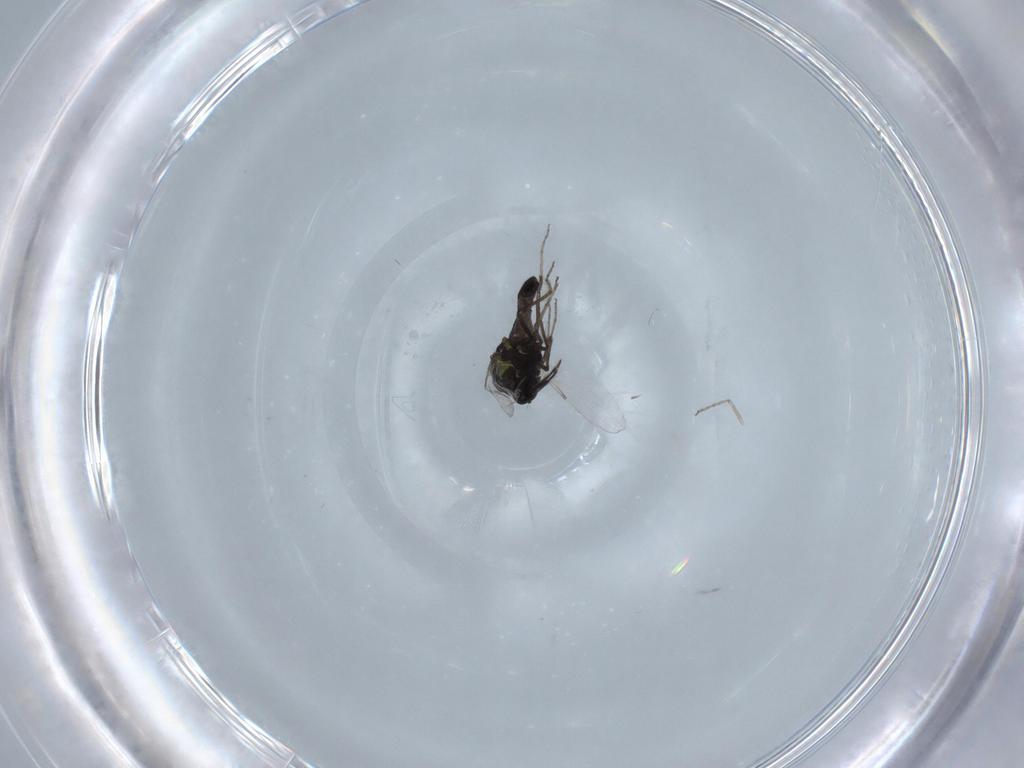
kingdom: Animalia
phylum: Arthropoda
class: Insecta
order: Diptera
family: Ceratopogonidae
